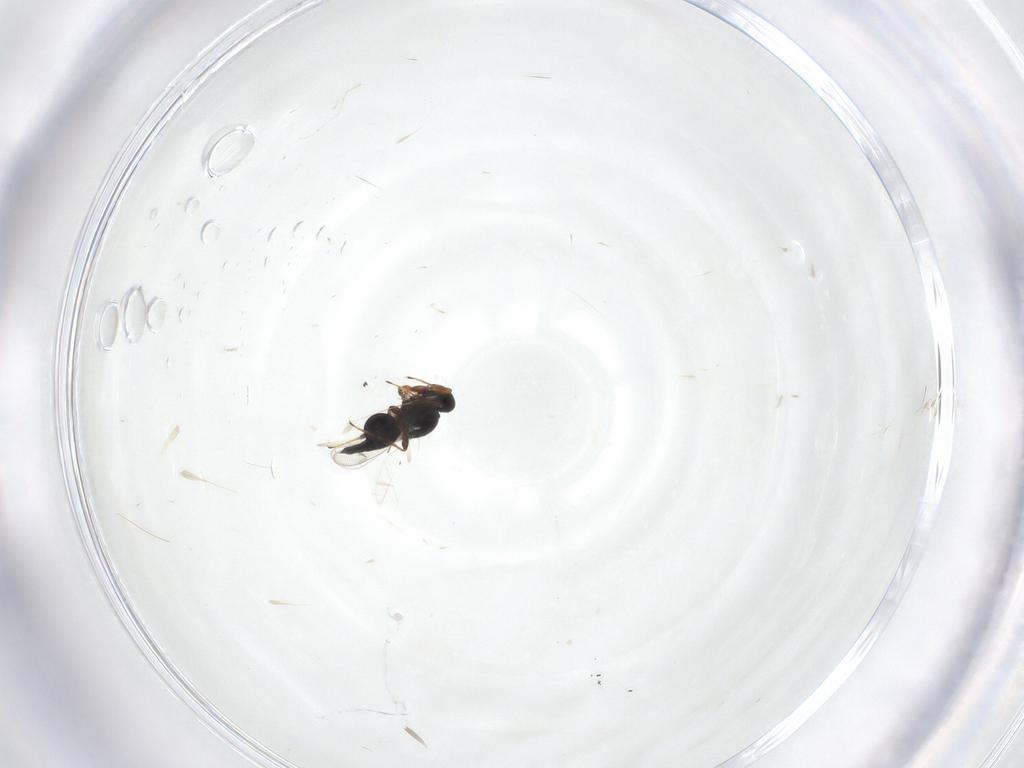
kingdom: Animalia
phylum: Arthropoda
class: Insecta
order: Hymenoptera
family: Platygastridae
